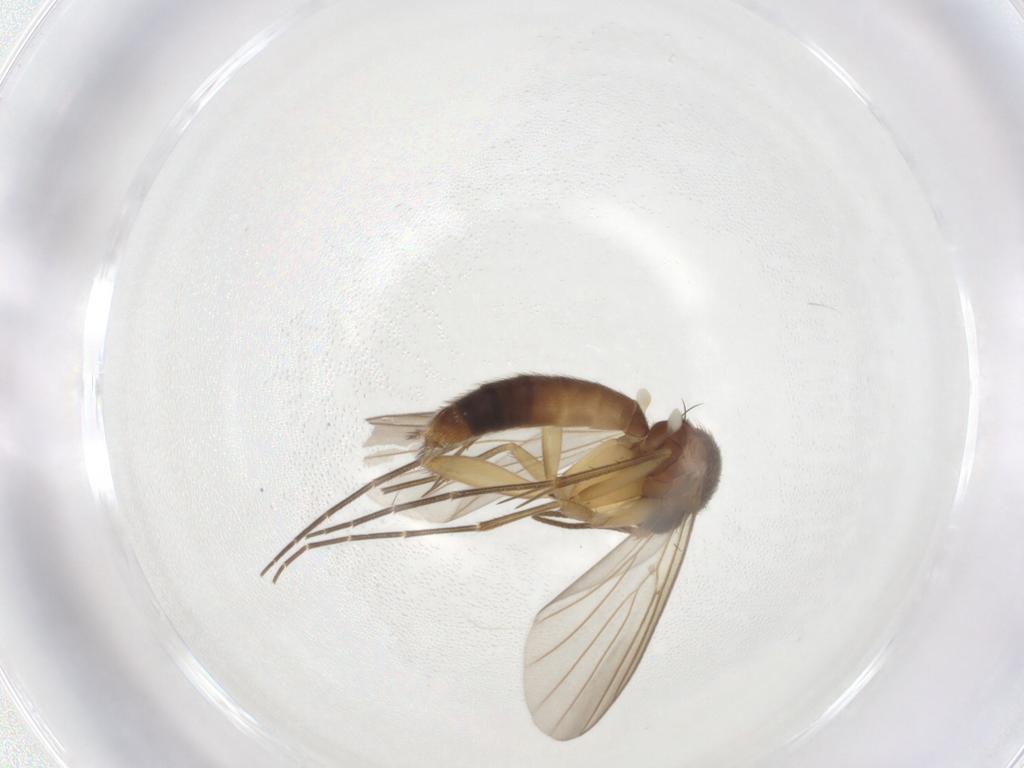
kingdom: Animalia
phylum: Arthropoda
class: Insecta
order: Diptera
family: Mycetophilidae
